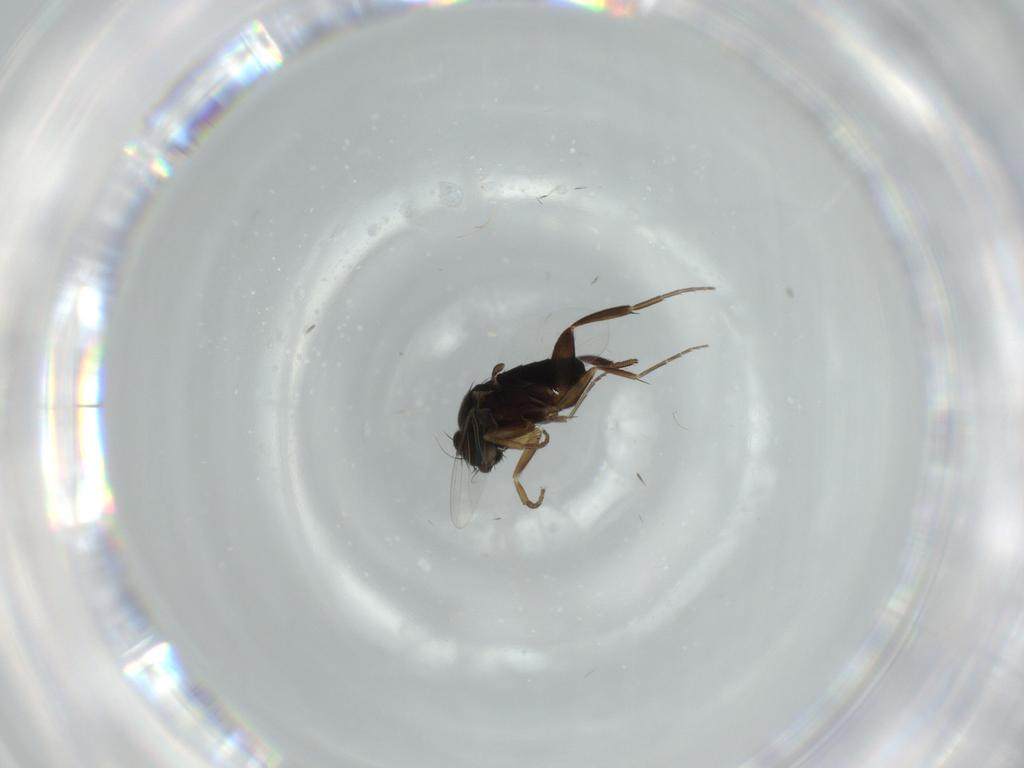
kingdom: Animalia
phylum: Arthropoda
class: Insecta
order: Diptera
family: Phoridae
